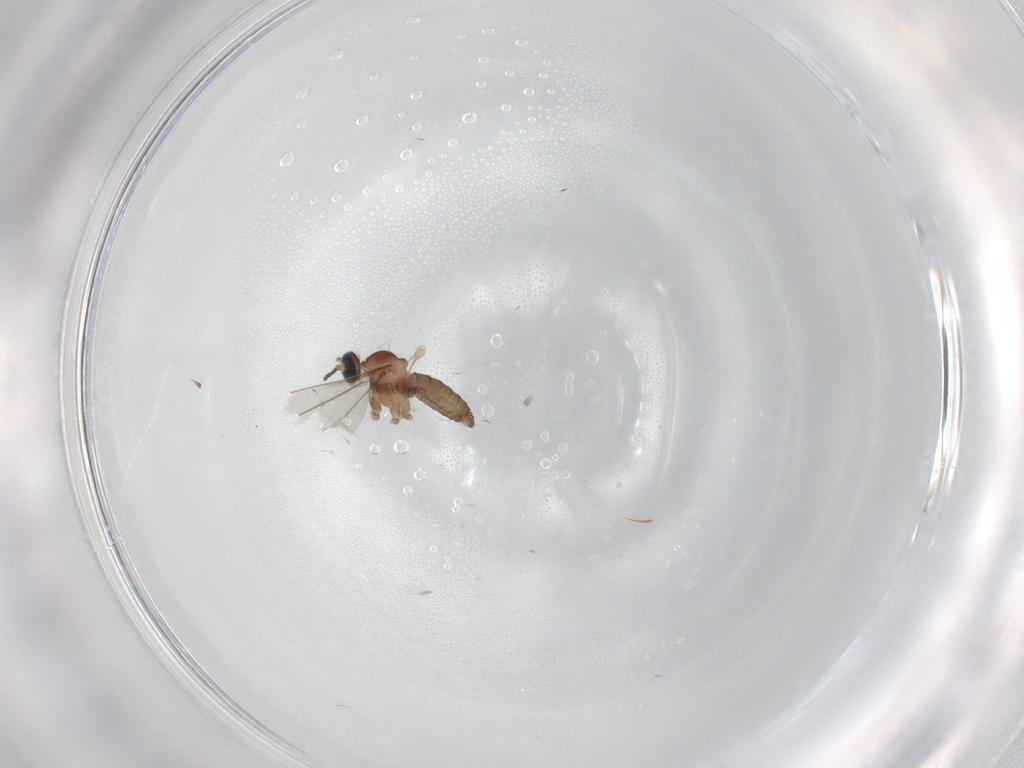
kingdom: Animalia
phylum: Arthropoda
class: Insecta
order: Diptera
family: Cecidomyiidae
